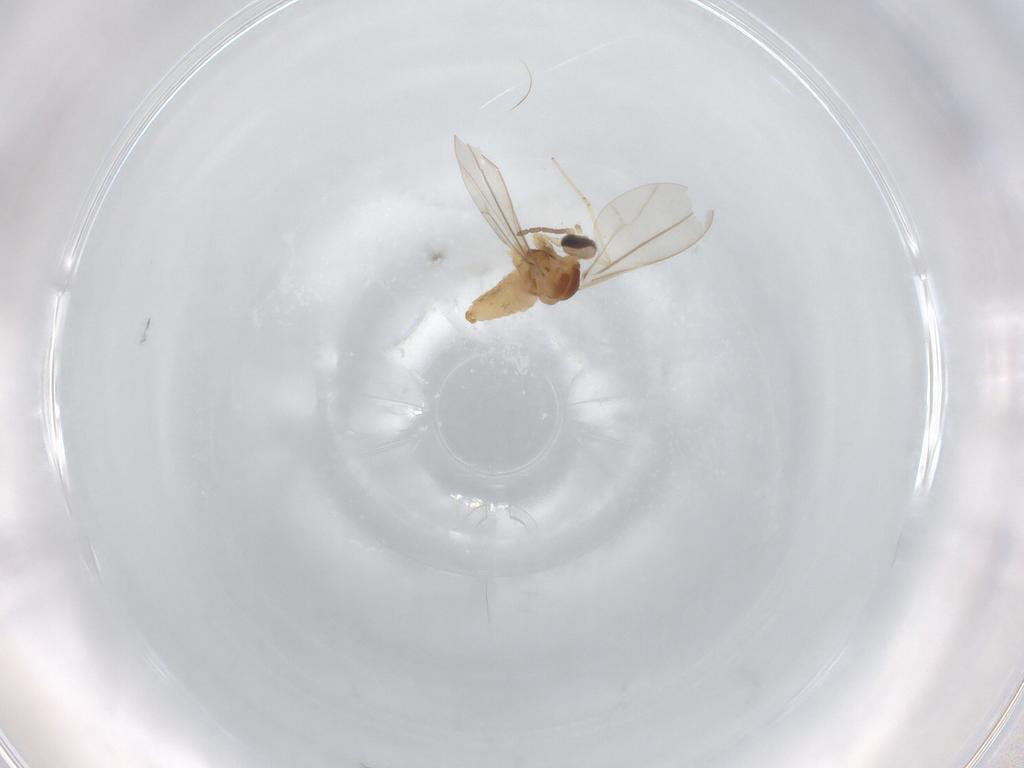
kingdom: Animalia
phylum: Arthropoda
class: Insecta
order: Diptera
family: Cecidomyiidae
